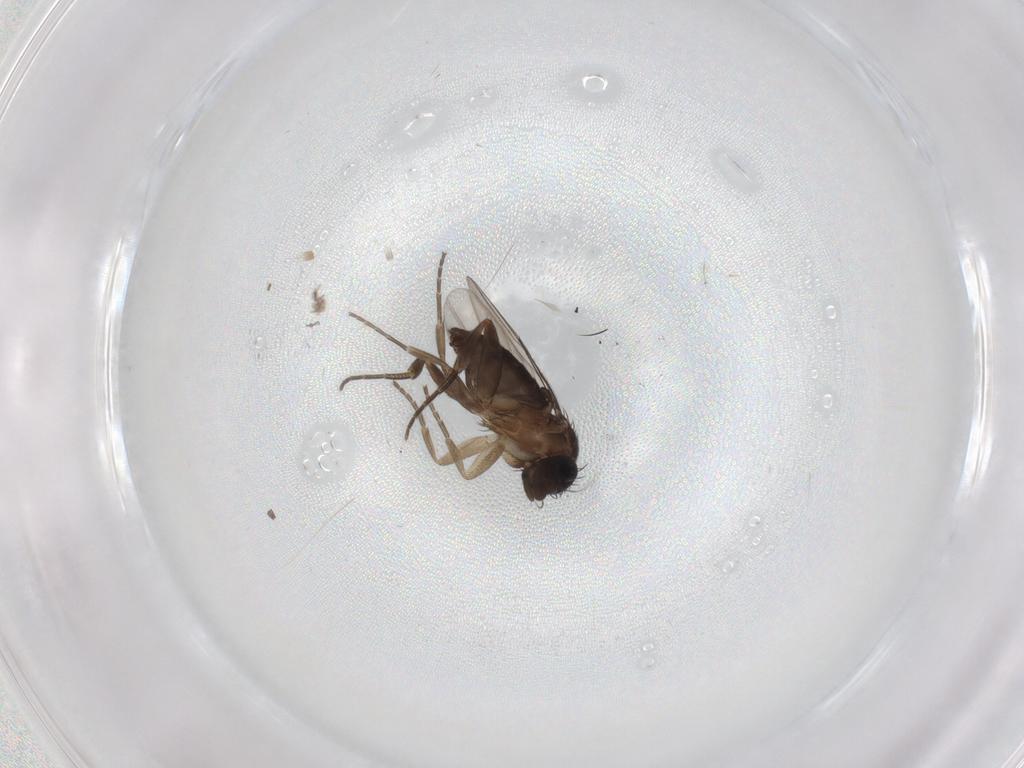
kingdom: Animalia
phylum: Arthropoda
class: Insecta
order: Diptera
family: Phoridae
